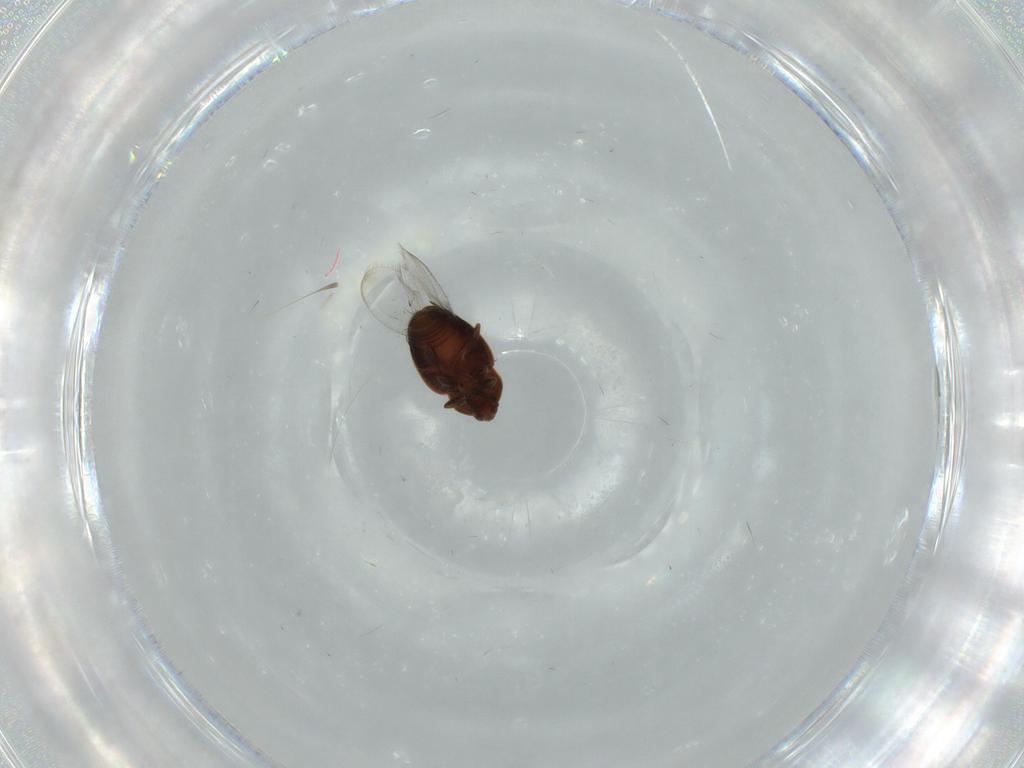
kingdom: Animalia
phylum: Arthropoda
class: Insecta
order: Coleoptera
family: Corylophidae
